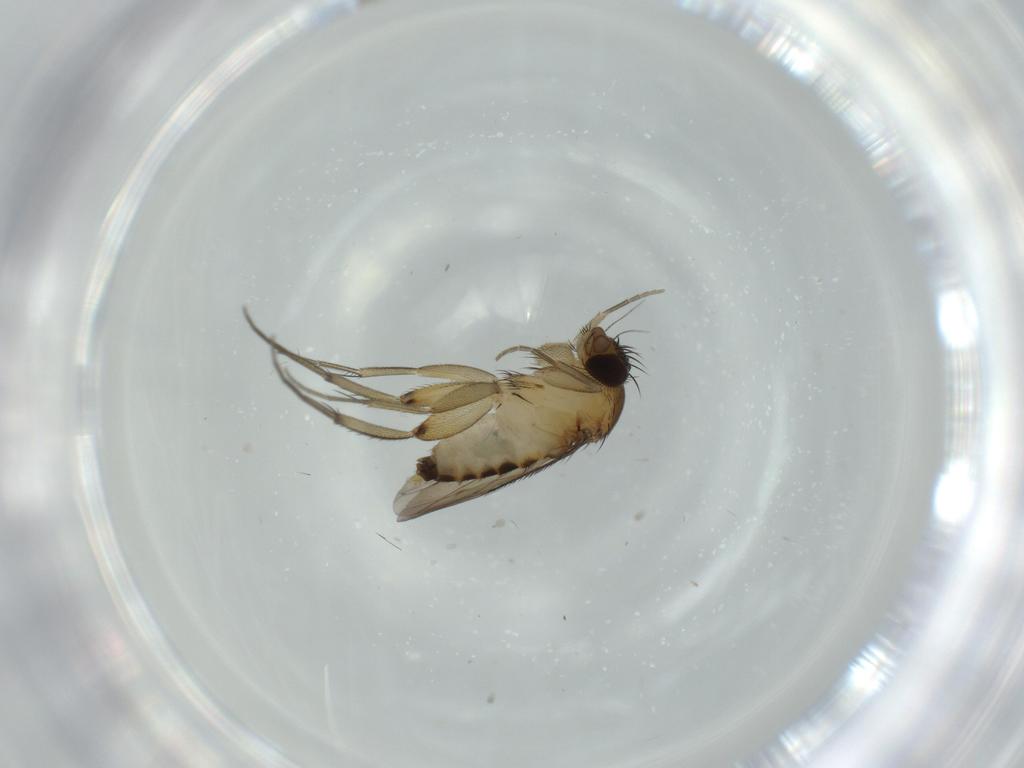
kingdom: Animalia
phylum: Arthropoda
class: Insecta
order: Diptera
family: Phoridae
